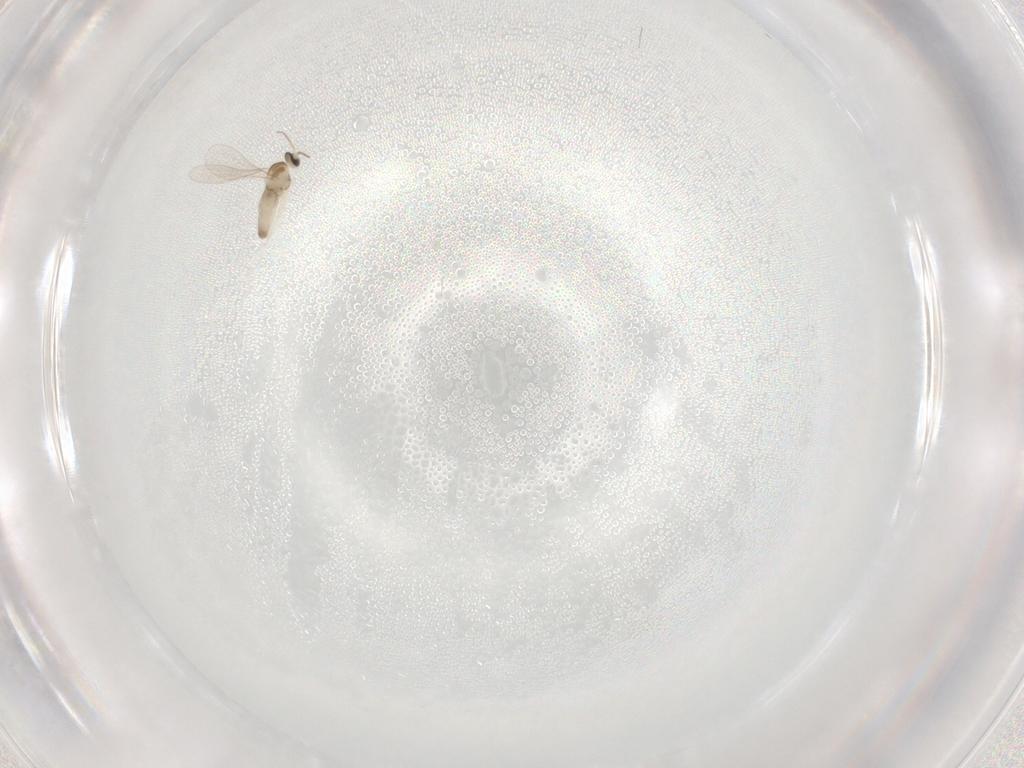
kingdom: Animalia
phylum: Arthropoda
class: Insecta
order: Diptera
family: Cecidomyiidae
